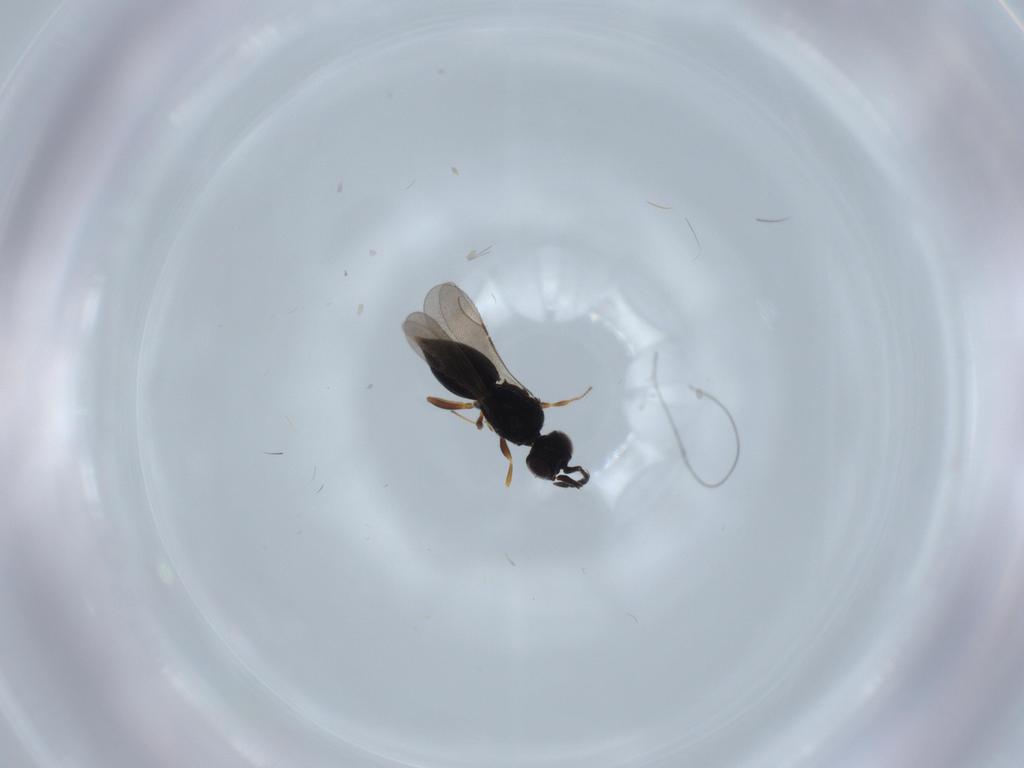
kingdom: Animalia
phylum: Arthropoda
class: Insecta
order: Hymenoptera
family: Ceraphronidae
